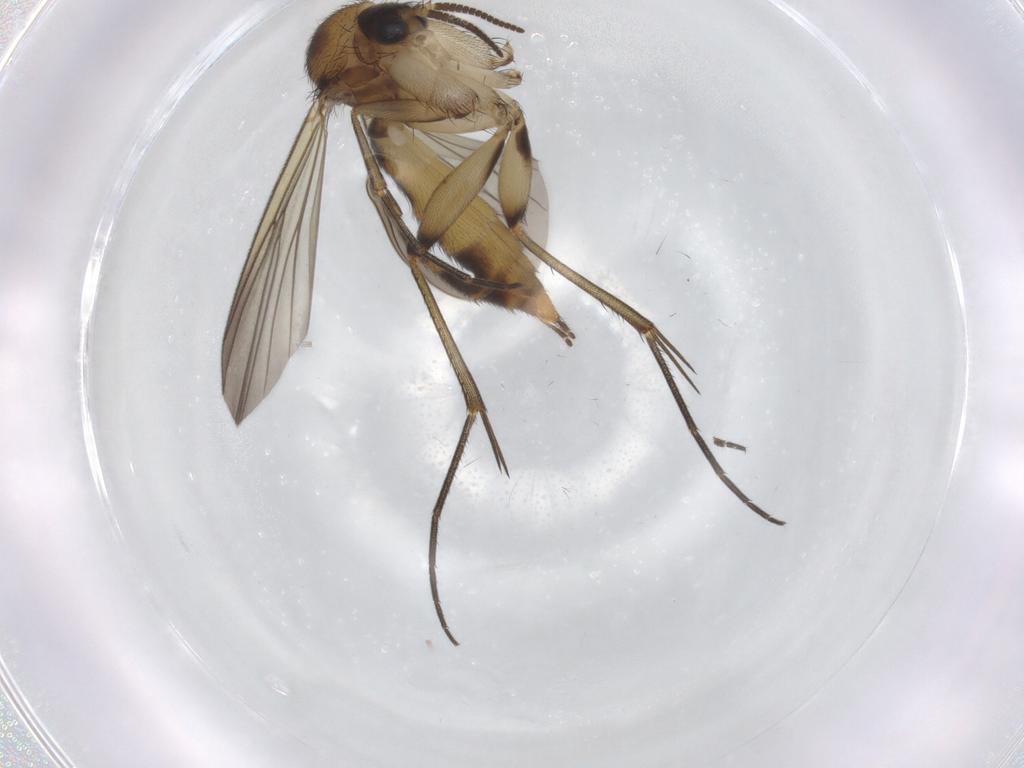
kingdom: Animalia
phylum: Arthropoda
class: Insecta
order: Diptera
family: Mycetophilidae
